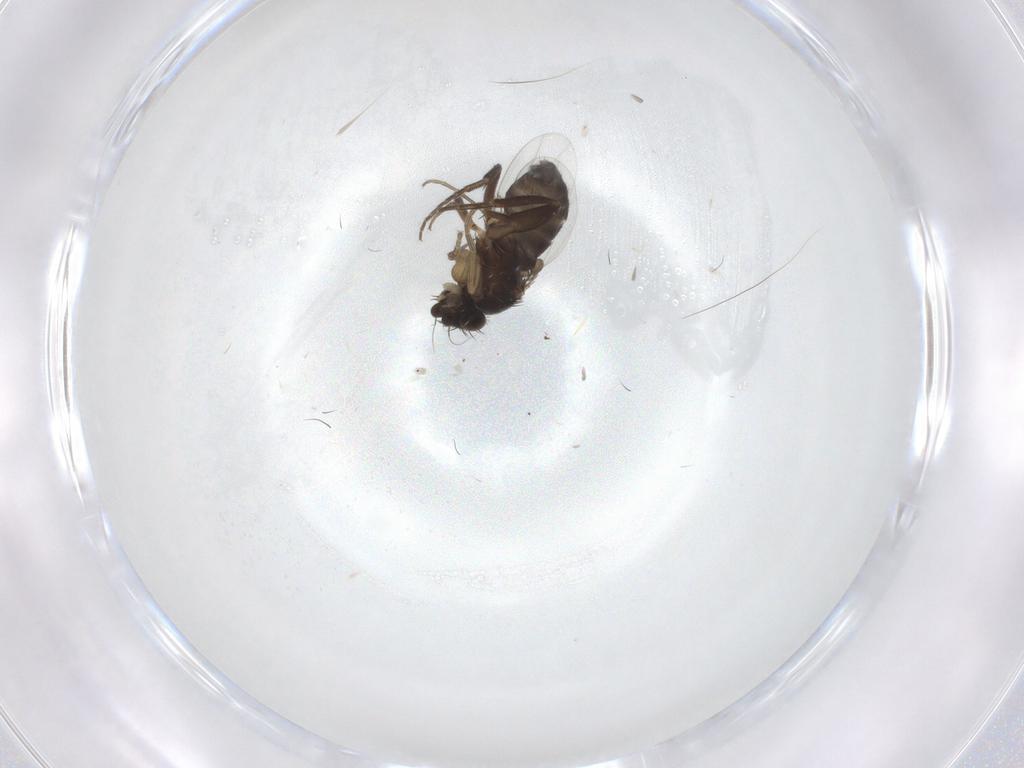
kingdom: Animalia
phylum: Arthropoda
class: Insecta
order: Diptera
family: Phoridae
